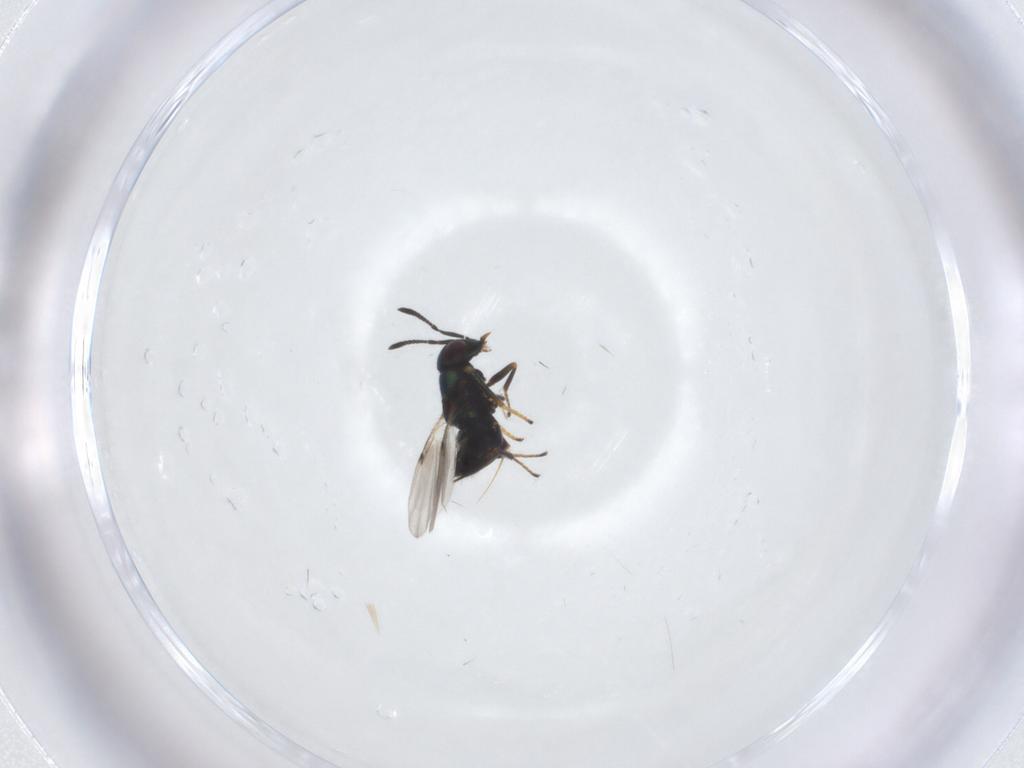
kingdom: Animalia
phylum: Arthropoda
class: Insecta
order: Hymenoptera
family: Encyrtidae
